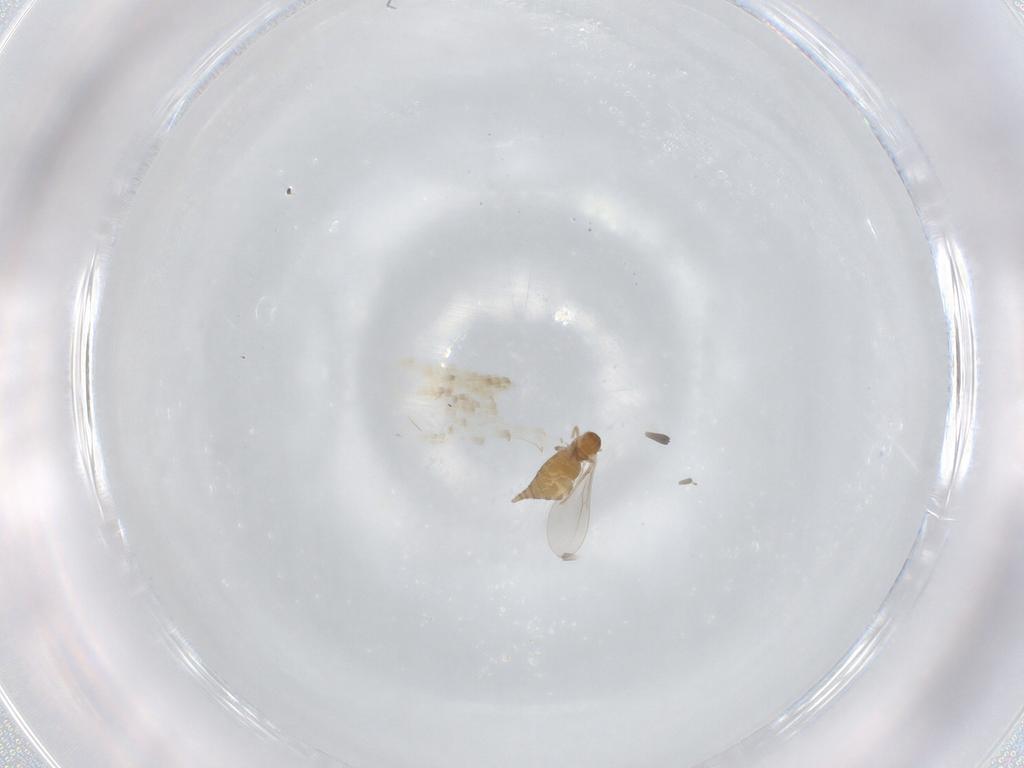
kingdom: Animalia
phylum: Arthropoda
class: Insecta
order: Diptera
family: Cecidomyiidae
